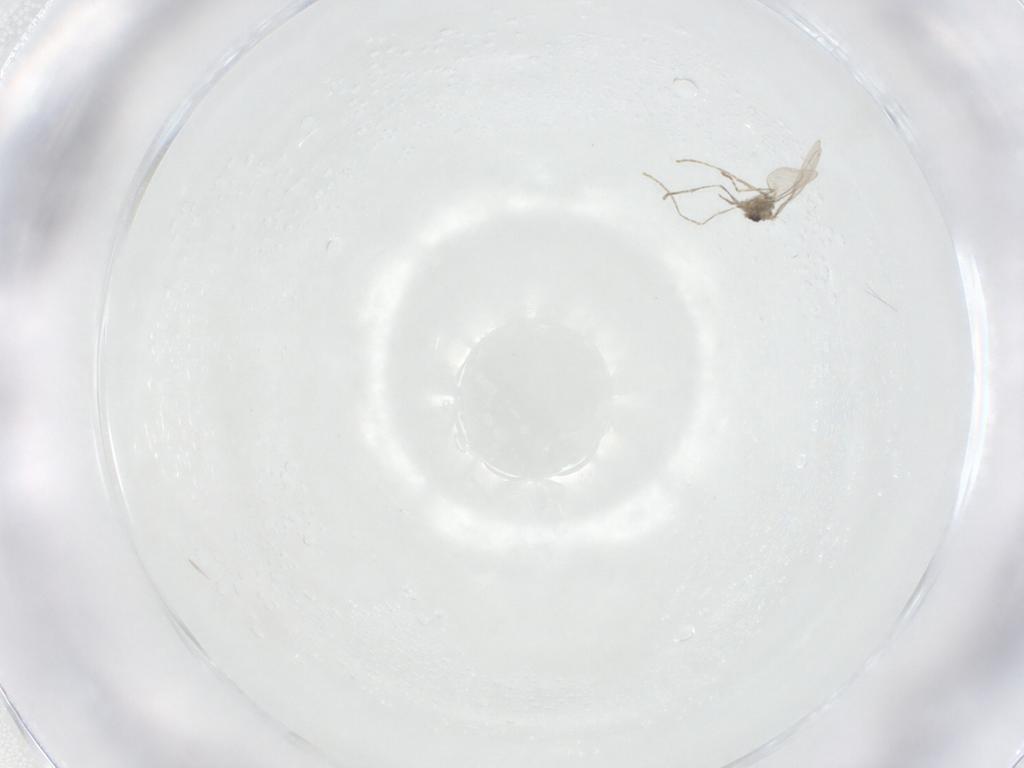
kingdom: Animalia
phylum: Arthropoda
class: Insecta
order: Diptera
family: Cecidomyiidae
